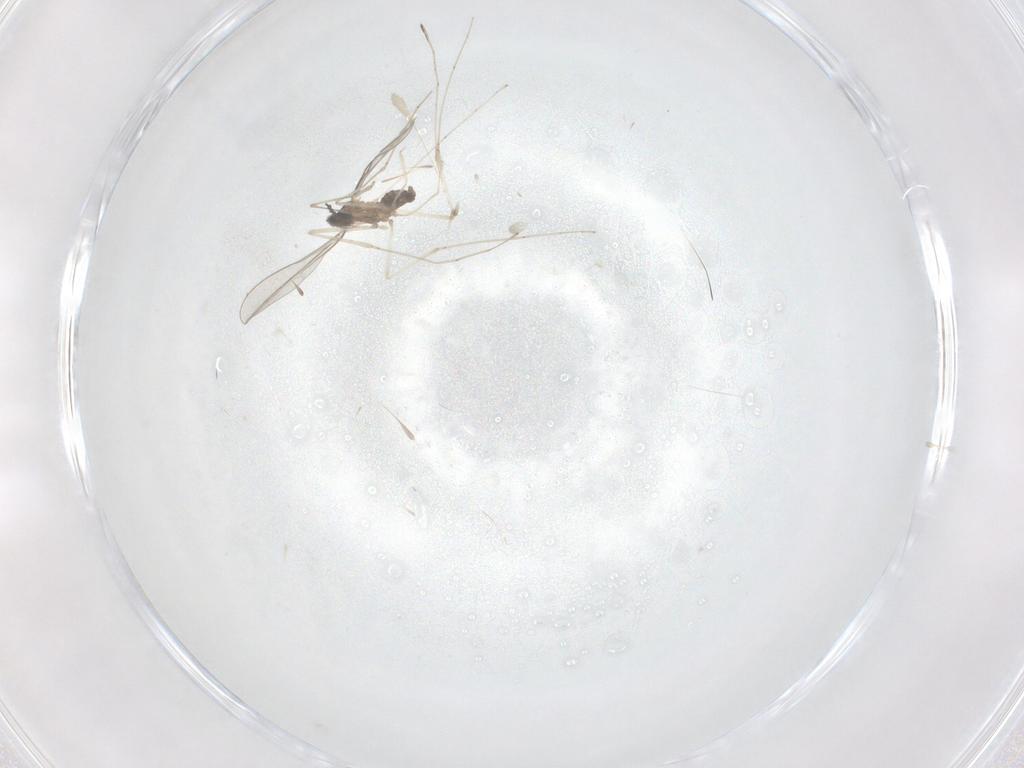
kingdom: Animalia
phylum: Arthropoda
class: Insecta
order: Diptera
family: Cecidomyiidae
